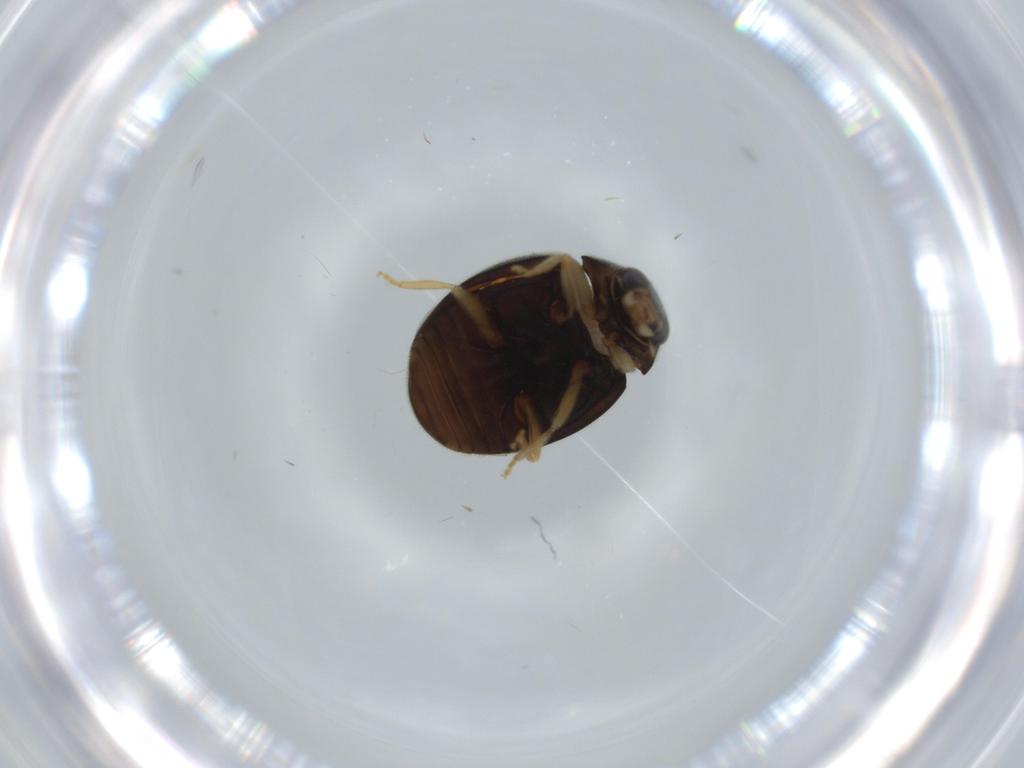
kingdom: Animalia
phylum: Arthropoda
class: Insecta
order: Coleoptera
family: Coccinellidae
